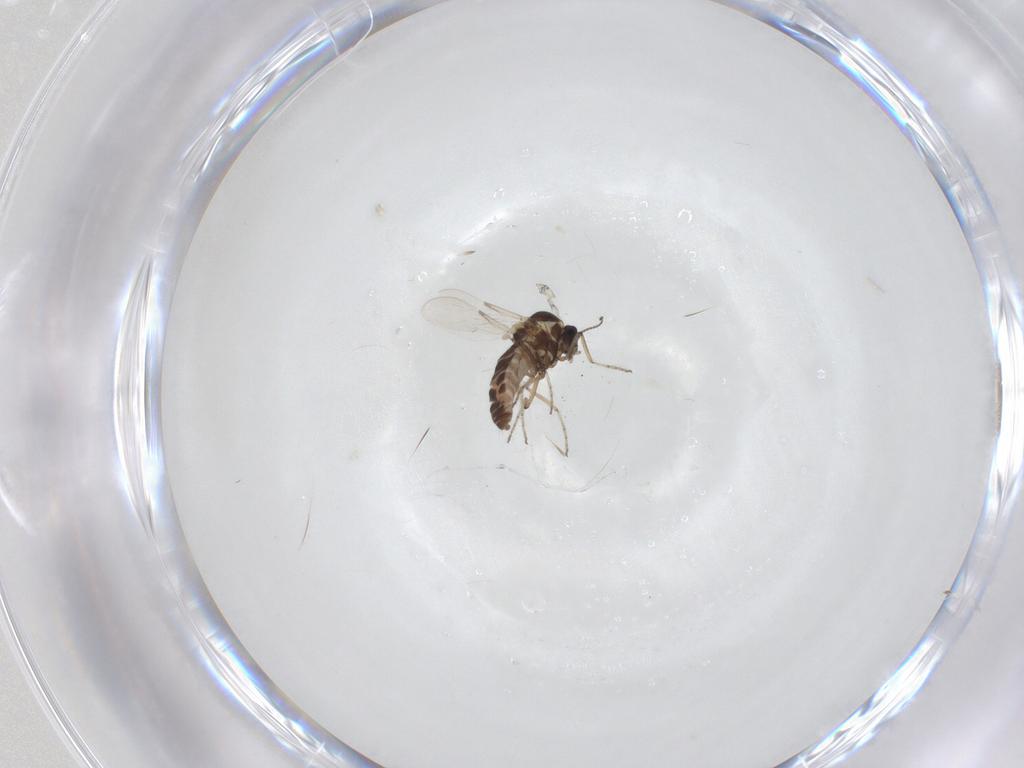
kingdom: Animalia
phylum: Arthropoda
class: Insecta
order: Diptera
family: Ceratopogonidae
